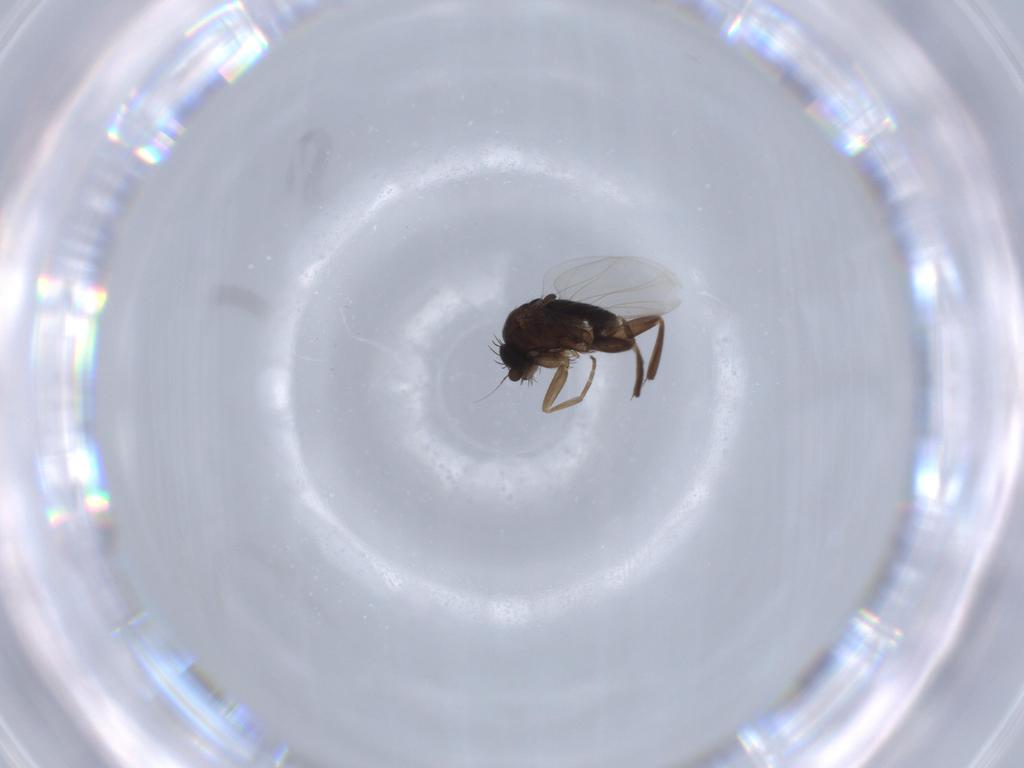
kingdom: Animalia
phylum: Arthropoda
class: Insecta
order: Diptera
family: Phoridae
